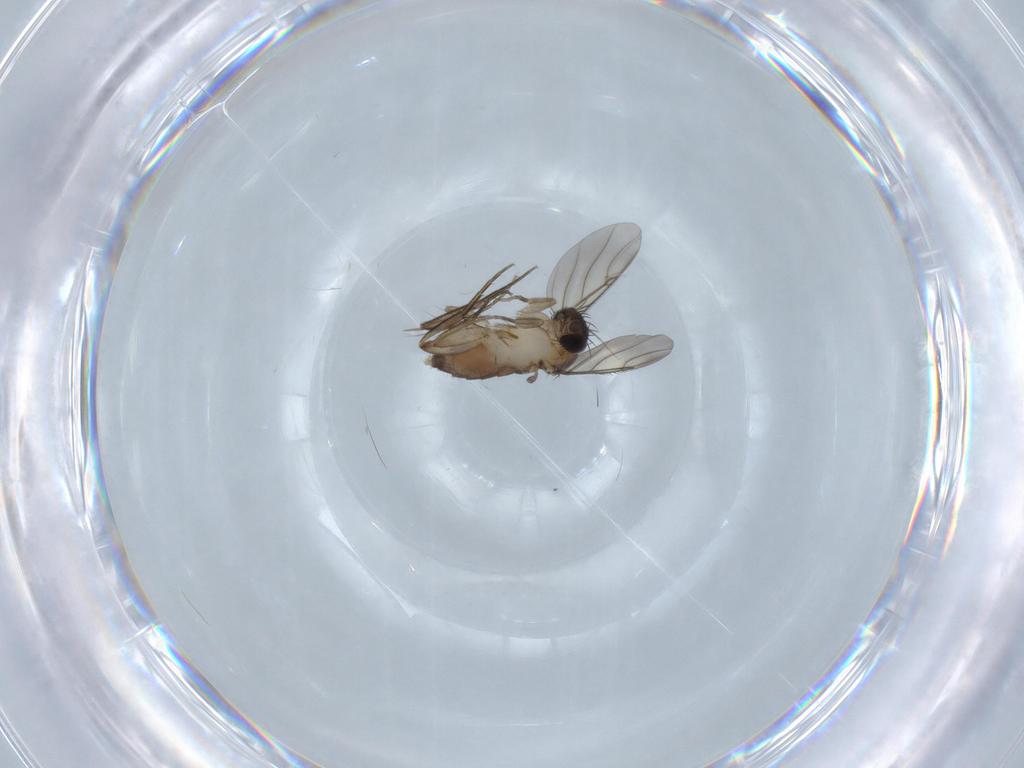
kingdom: Animalia
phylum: Arthropoda
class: Insecta
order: Diptera
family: Phoridae
